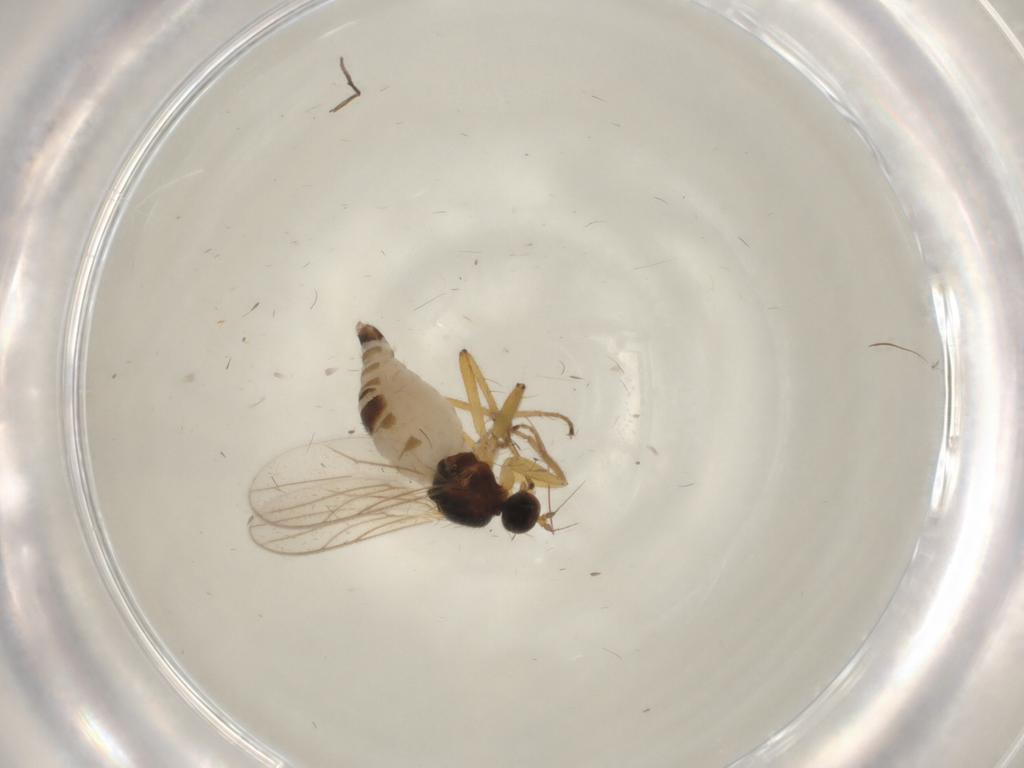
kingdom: Animalia
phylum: Arthropoda
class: Insecta
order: Diptera
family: Hybotidae
